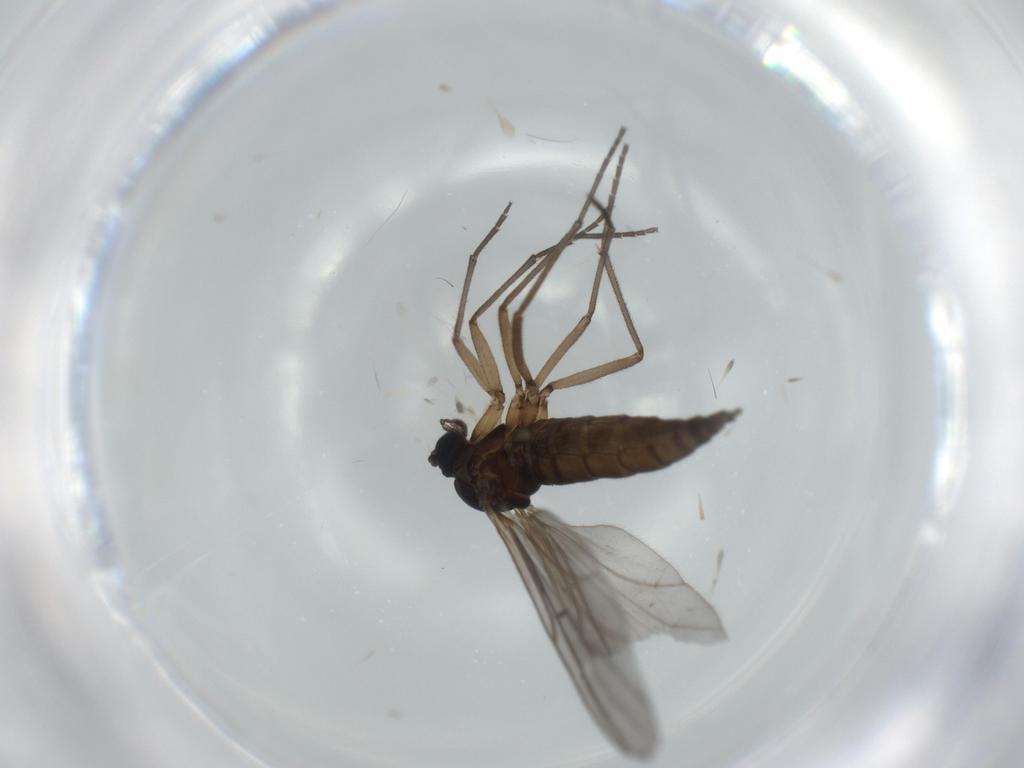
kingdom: Animalia
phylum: Arthropoda
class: Insecta
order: Diptera
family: Sciaridae
